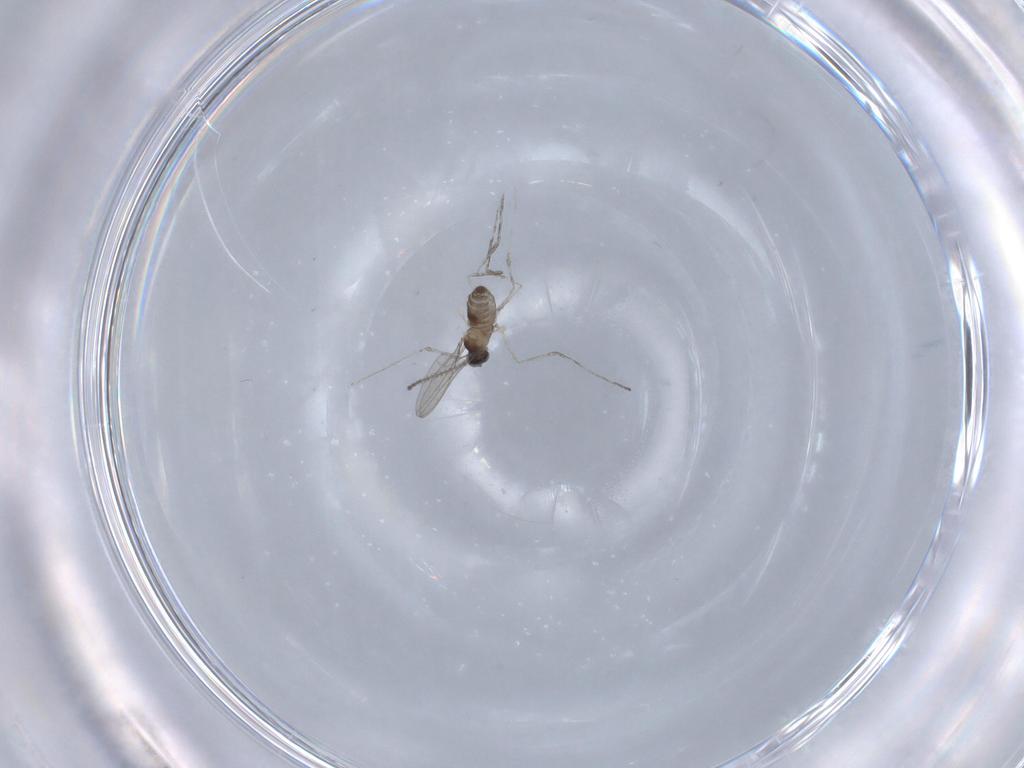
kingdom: Animalia
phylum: Arthropoda
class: Insecta
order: Diptera
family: Cecidomyiidae
